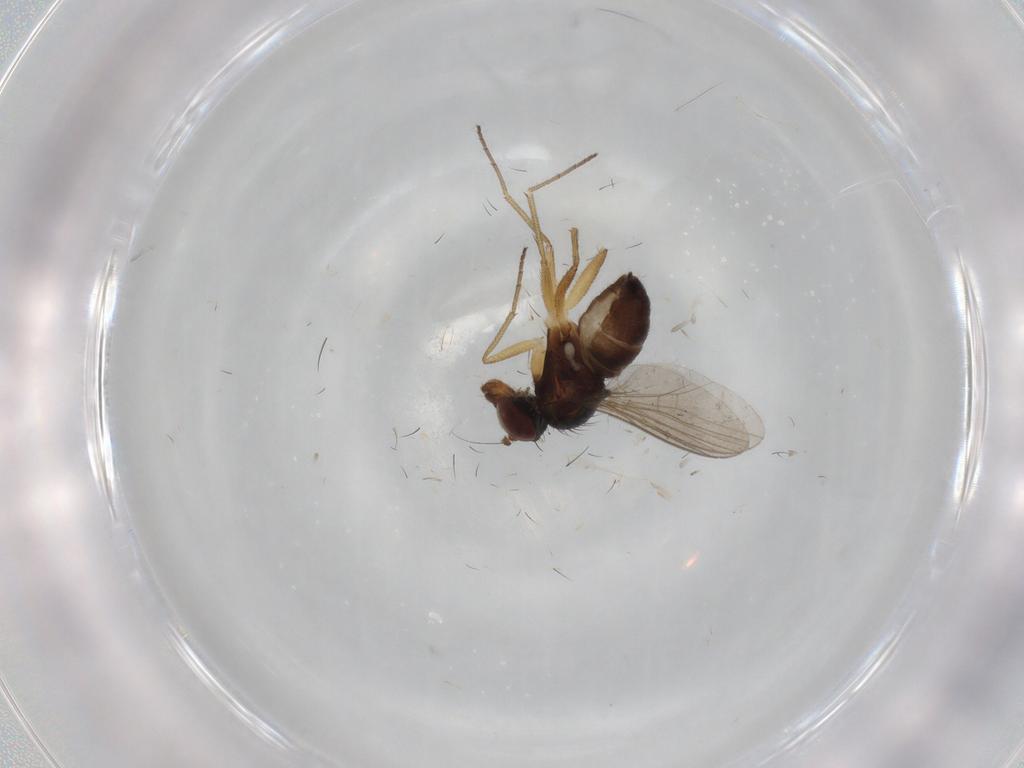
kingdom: Animalia
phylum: Arthropoda
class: Insecta
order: Diptera
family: Dolichopodidae
